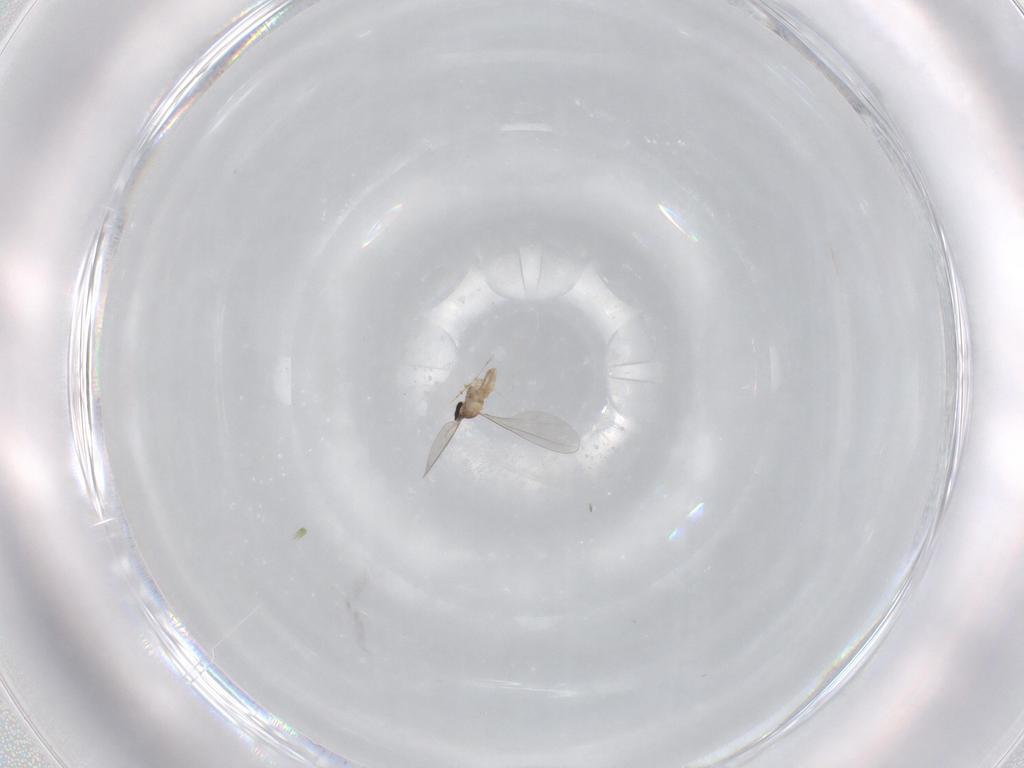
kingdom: Animalia
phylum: Arthropoda
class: Insecta
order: Diptera
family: Cecidomyiidae
